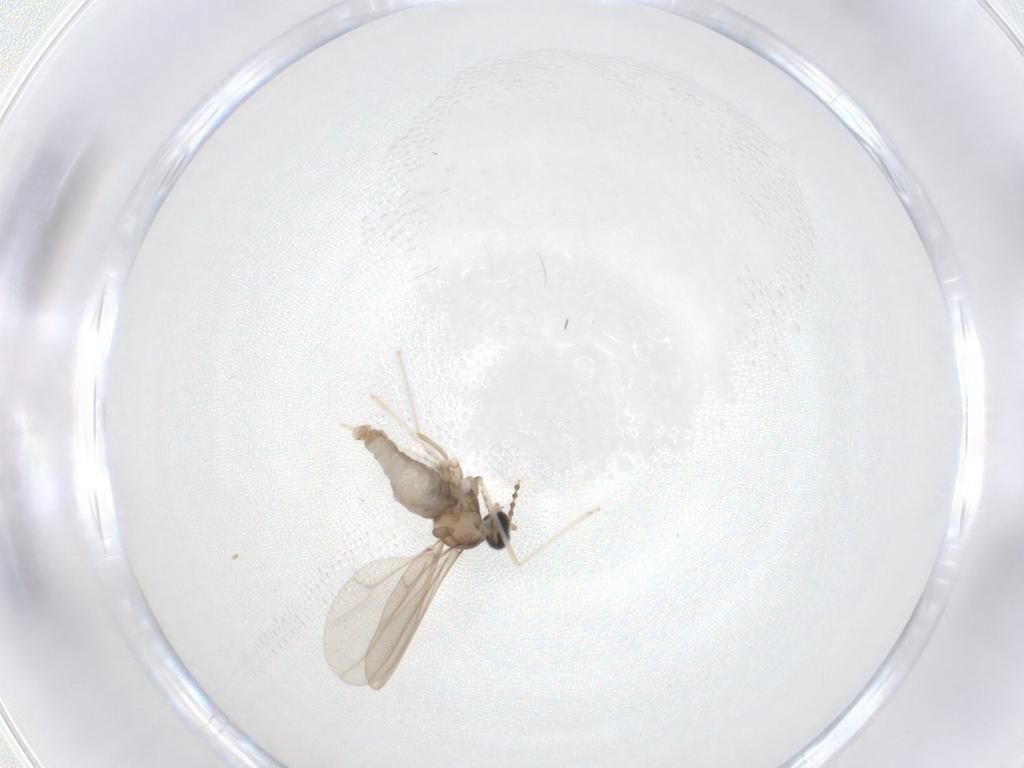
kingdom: Animalia
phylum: Arthropoda
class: Insecta
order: Diptera
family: Cecidomyiidae
